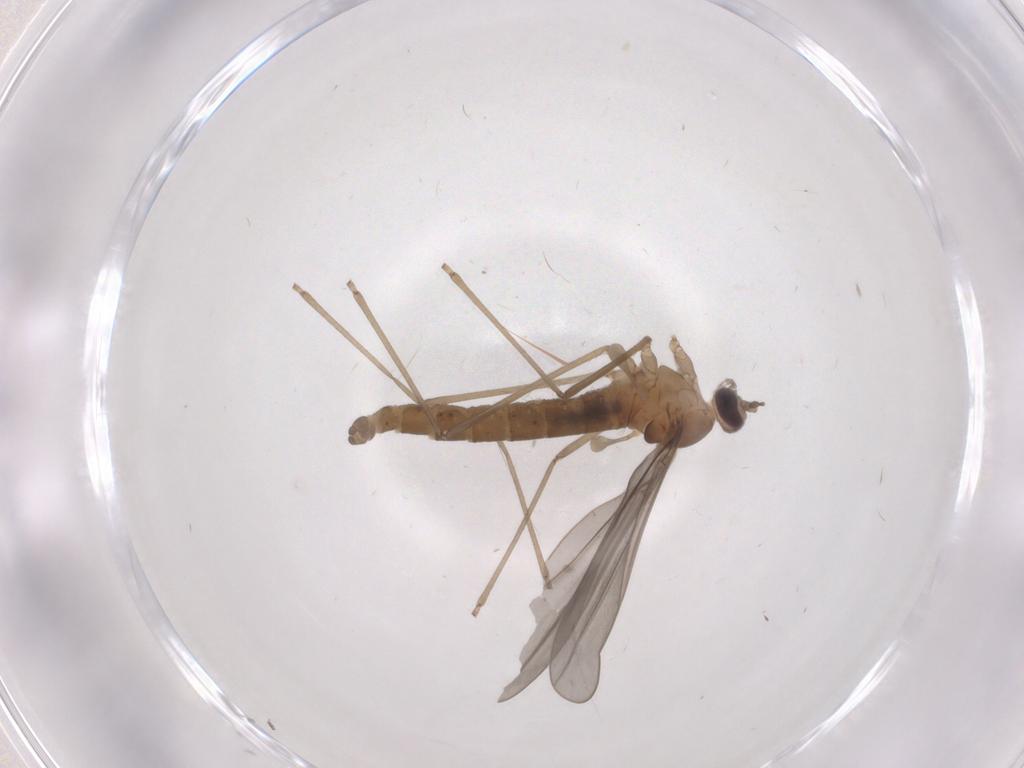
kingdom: Animalia
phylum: Arthropoda
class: Insecta
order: Diptera
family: Cecidomyiidae
